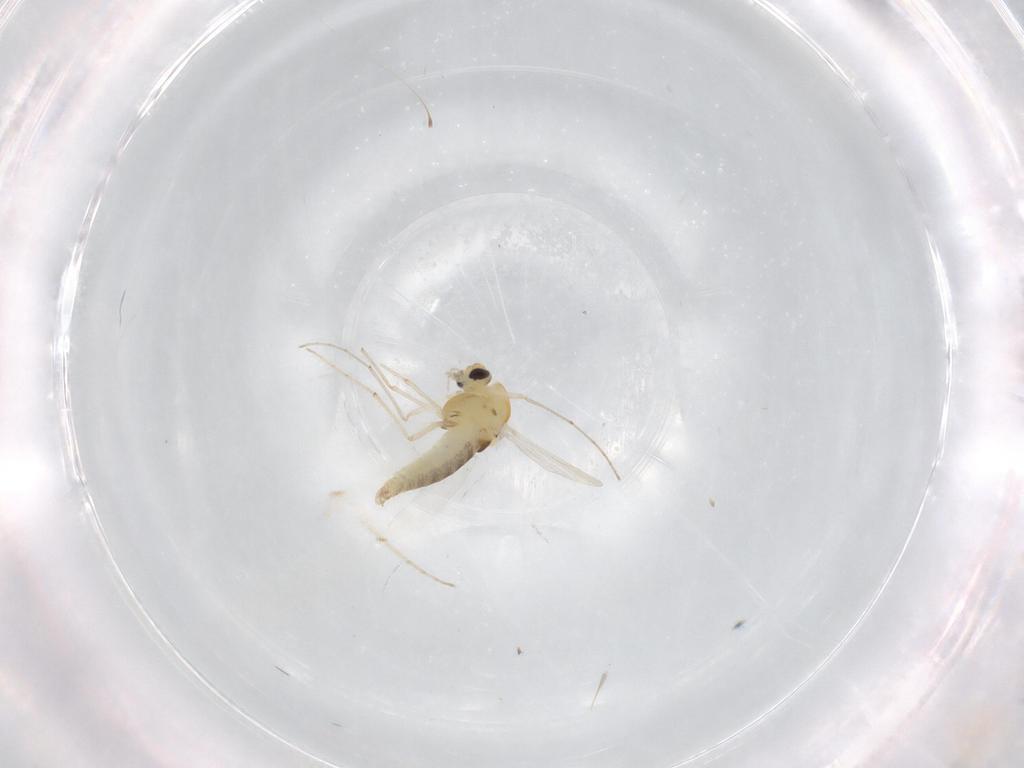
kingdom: Animalia
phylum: Arthropoda
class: Insecta
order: Diptera
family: Chironomidae
